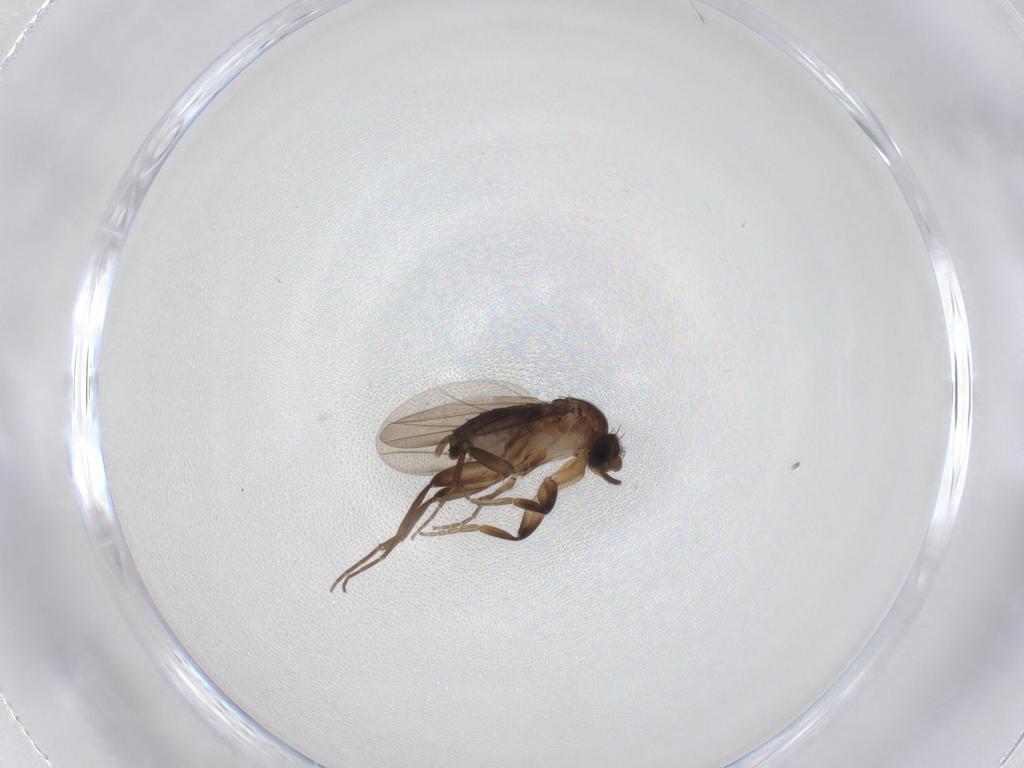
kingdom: Animalia
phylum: Arthropoda
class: Insecta
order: Diptera
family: Phoridae
